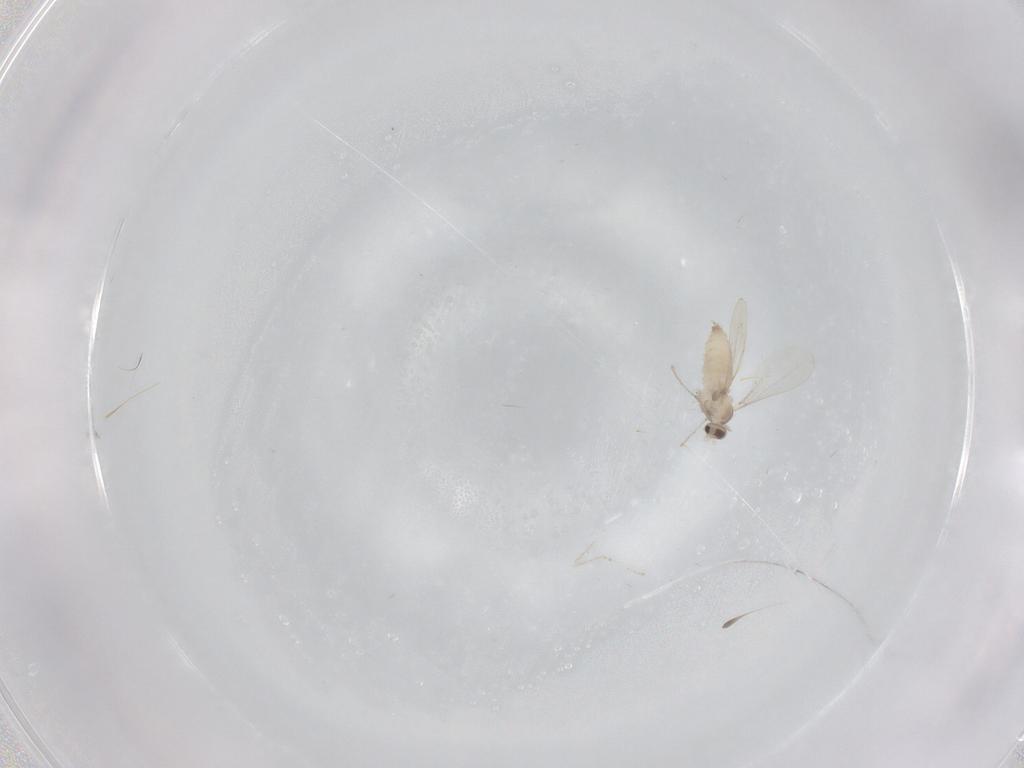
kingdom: Animalia
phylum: Arthropoda
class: Insecta
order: Diptera
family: Cecidomyiidae
